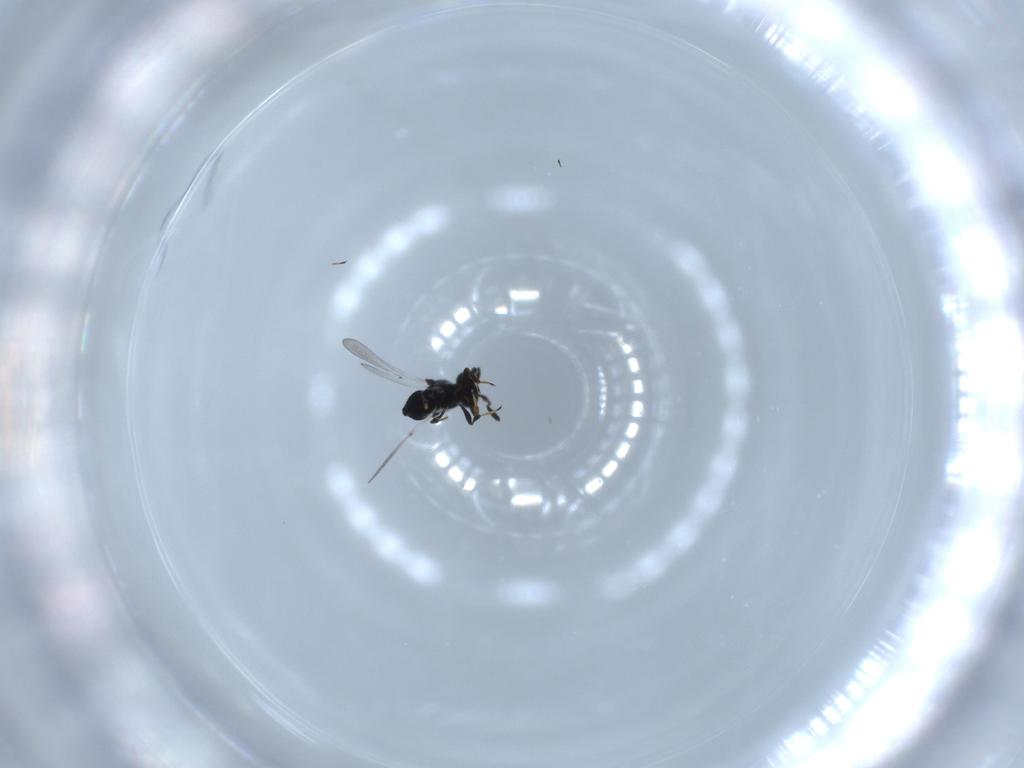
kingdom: Animalia
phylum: Arthropoda
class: Insecta
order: Hymenoptera
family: Platygastridae
